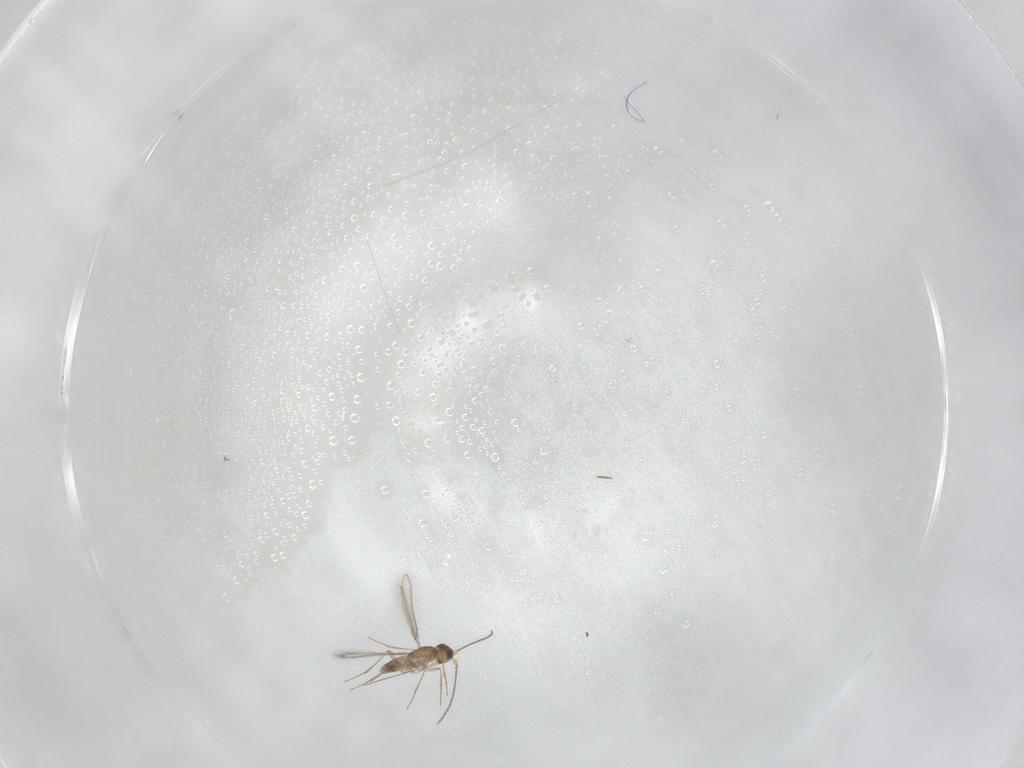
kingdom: Animalia
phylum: Arthropoda
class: Insecta
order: Hymenoptera
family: Mymaridae
